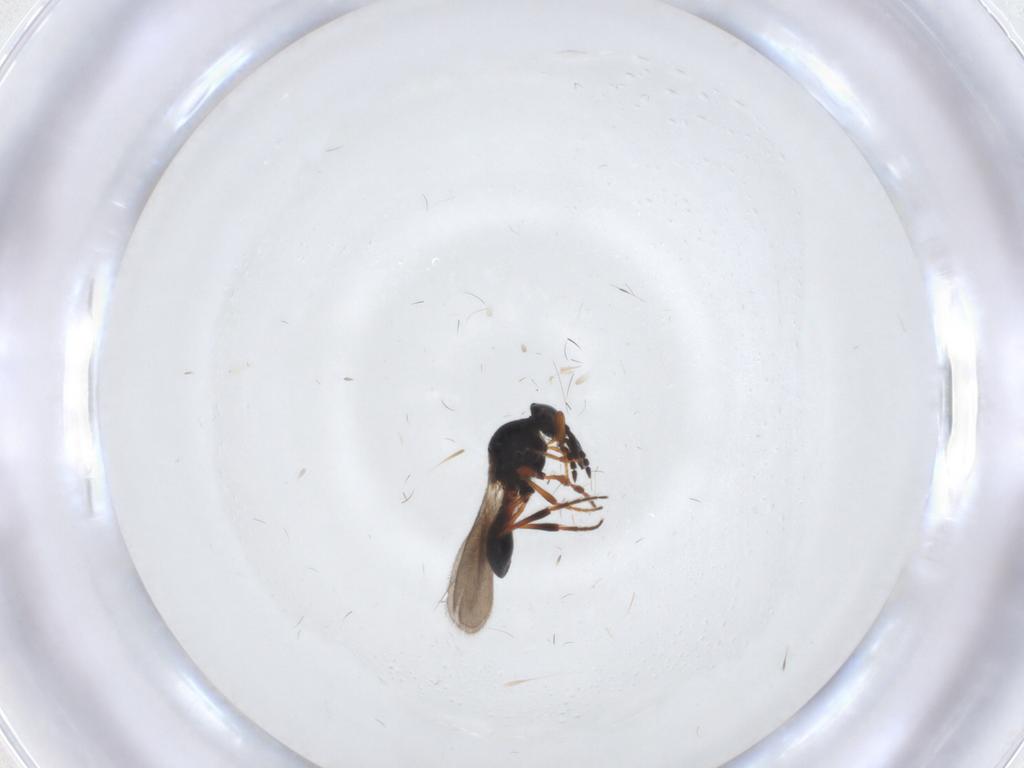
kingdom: Animalia
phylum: Arthropoda
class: Insecta
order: Hymenoptera
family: Platygastridae
